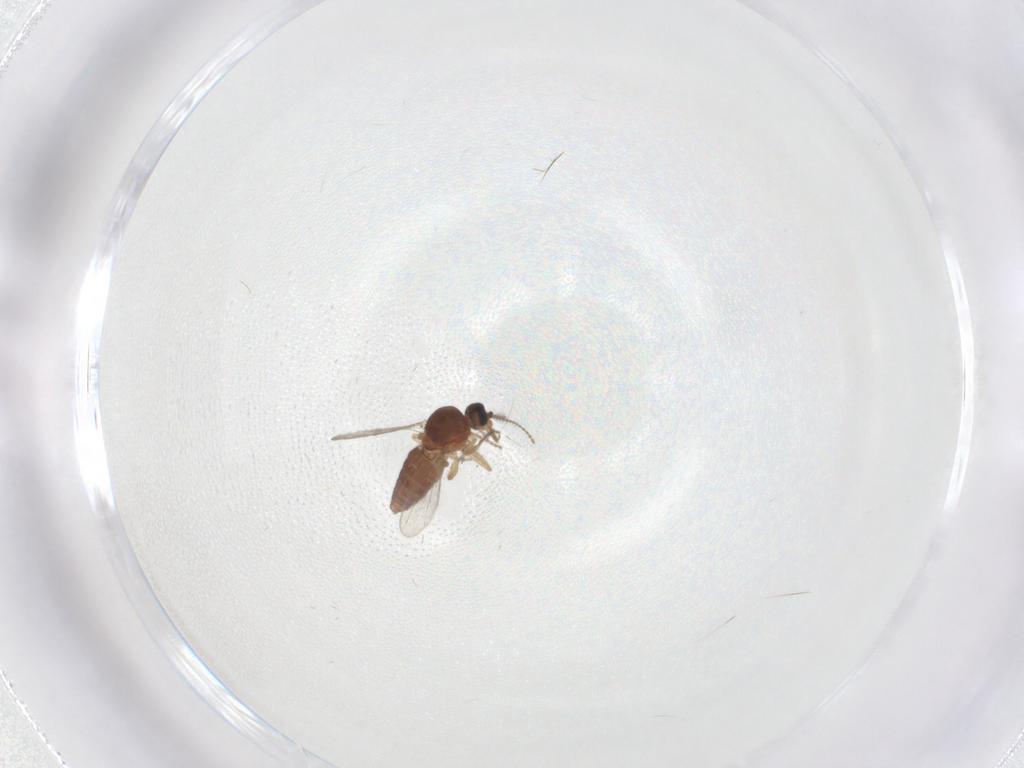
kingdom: Animalia
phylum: Arthropoda
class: Insecta
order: Diptera
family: Ceratopogonidae
